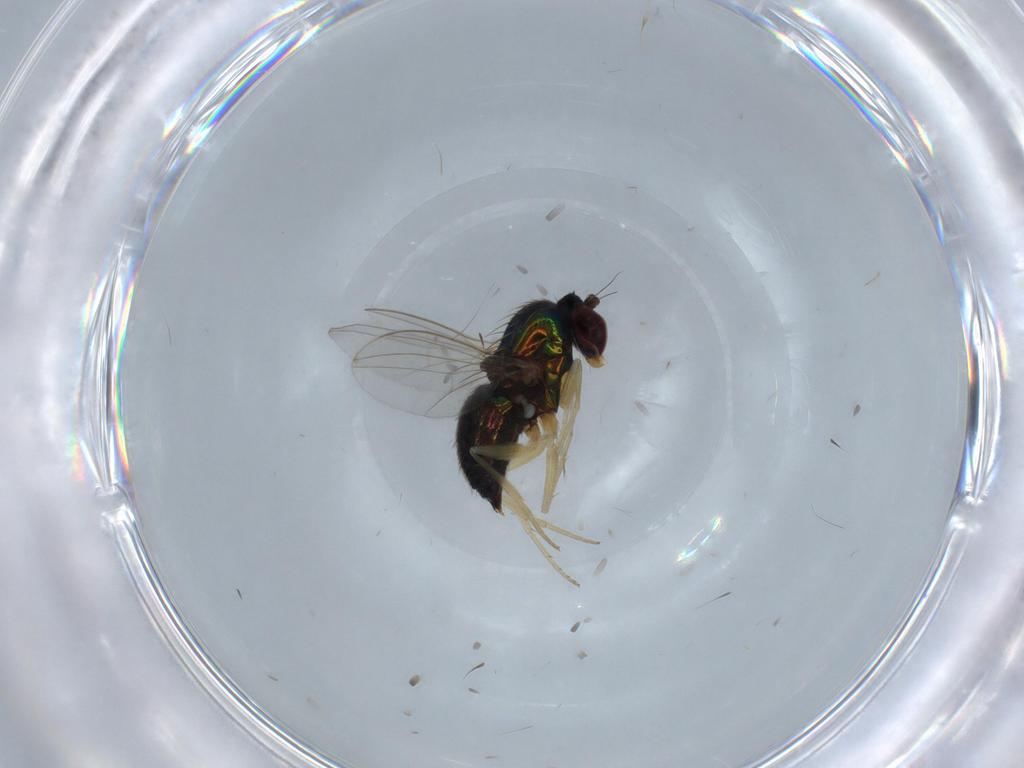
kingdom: Animalia
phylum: Arthropoda
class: Insecta
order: Diptera
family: Dolichopodidae
